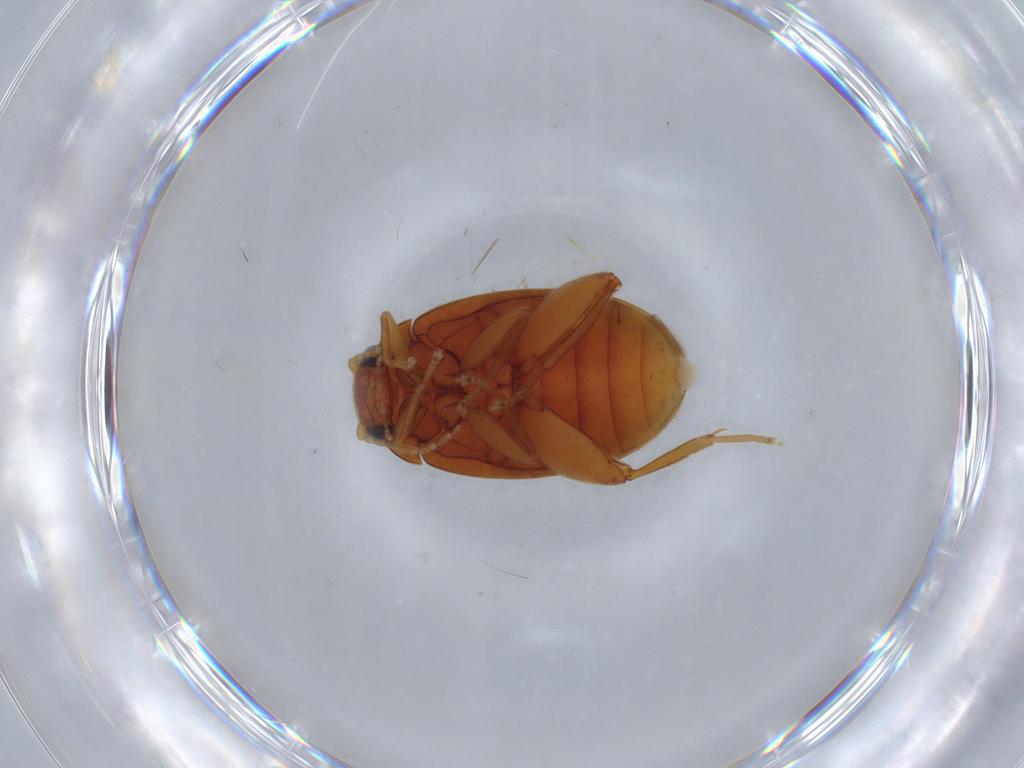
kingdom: Animalia
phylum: Arthropoda
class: Insecta
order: Coleoptera
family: Scirtidae
